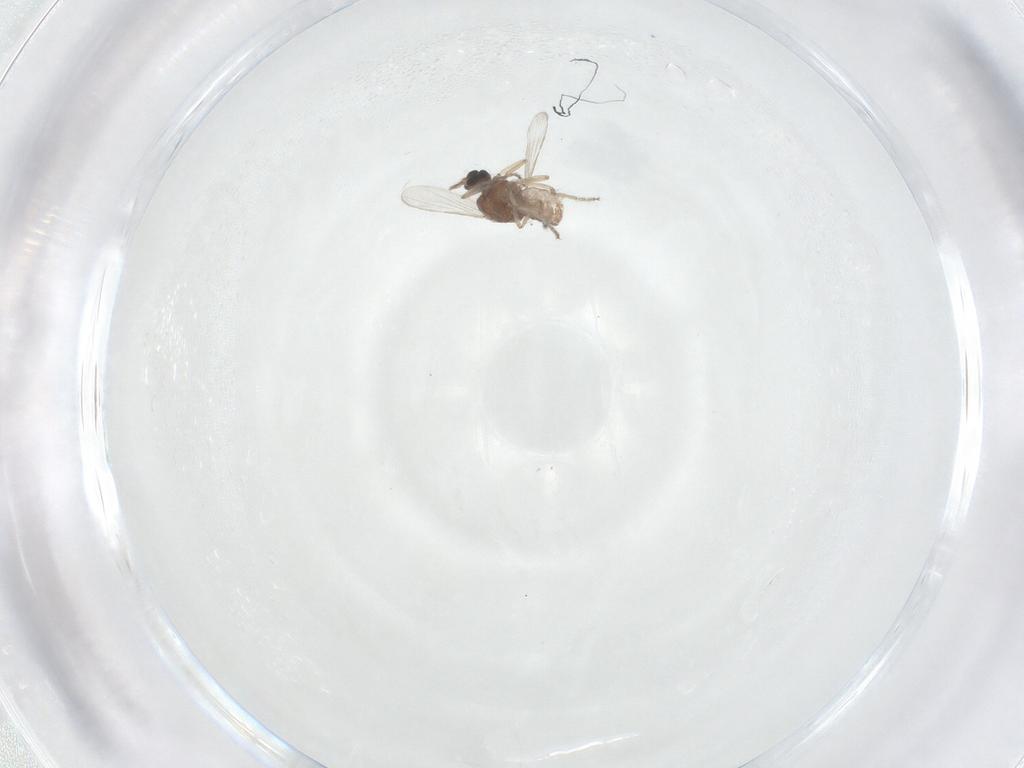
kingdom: Animalia
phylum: Arthropoda
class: Insecta
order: Diptera
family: Ceratopogonidae
